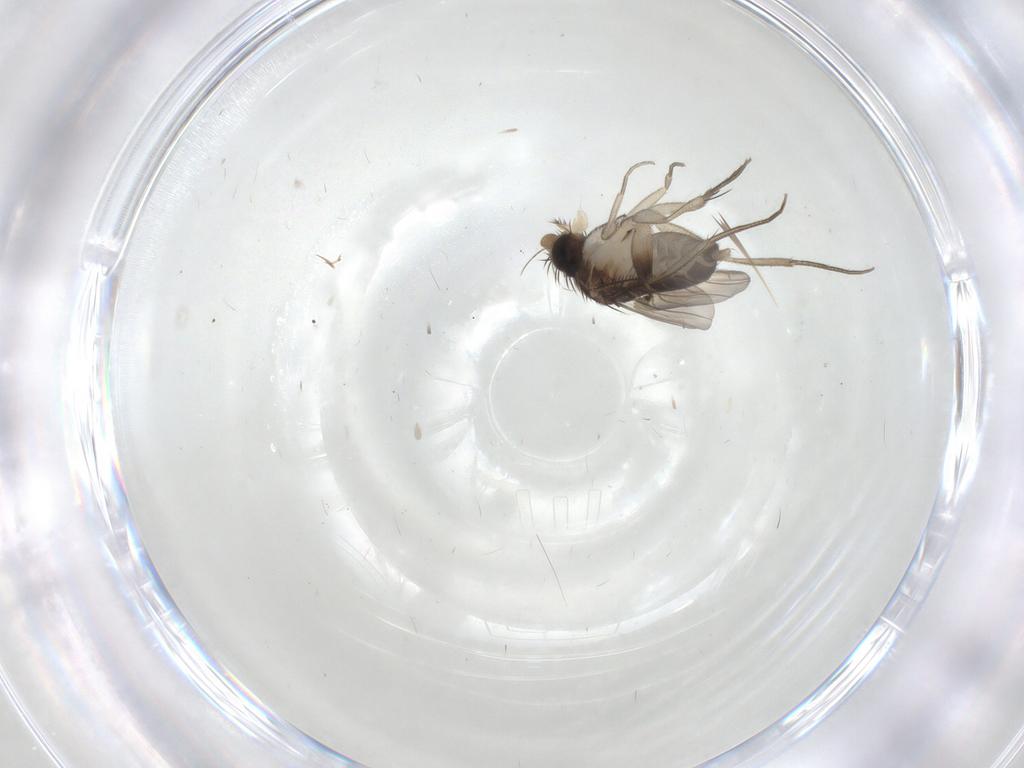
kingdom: Animalia
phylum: Arthropoda
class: Insecta
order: Diptera
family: Phoridae
